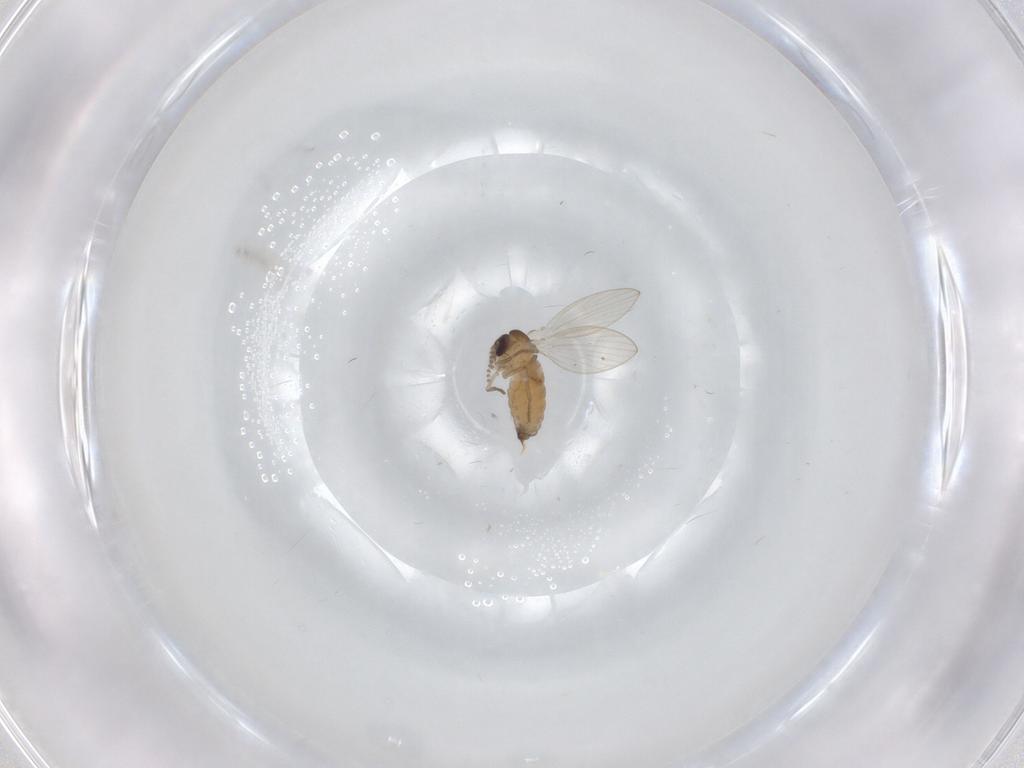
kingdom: Animalia
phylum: Arthropoda
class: Insecta
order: Diptera
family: Psychodidae
